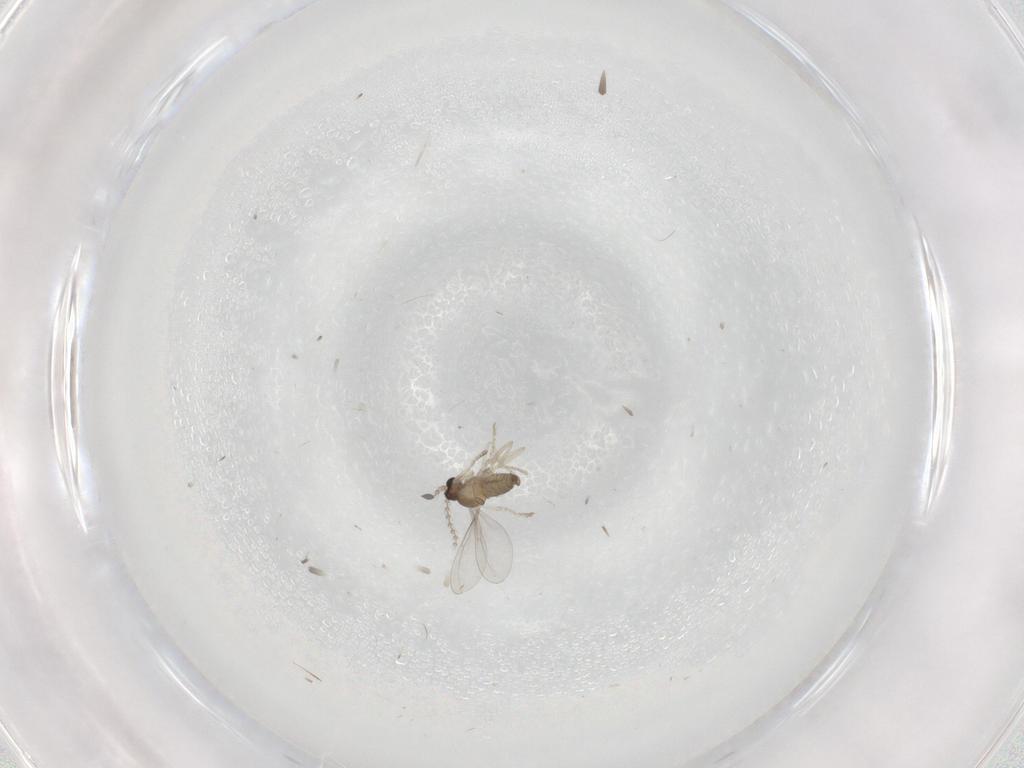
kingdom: Animalia
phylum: Arthropoda
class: Insecta
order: Diptera
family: Cecidomyiidae
